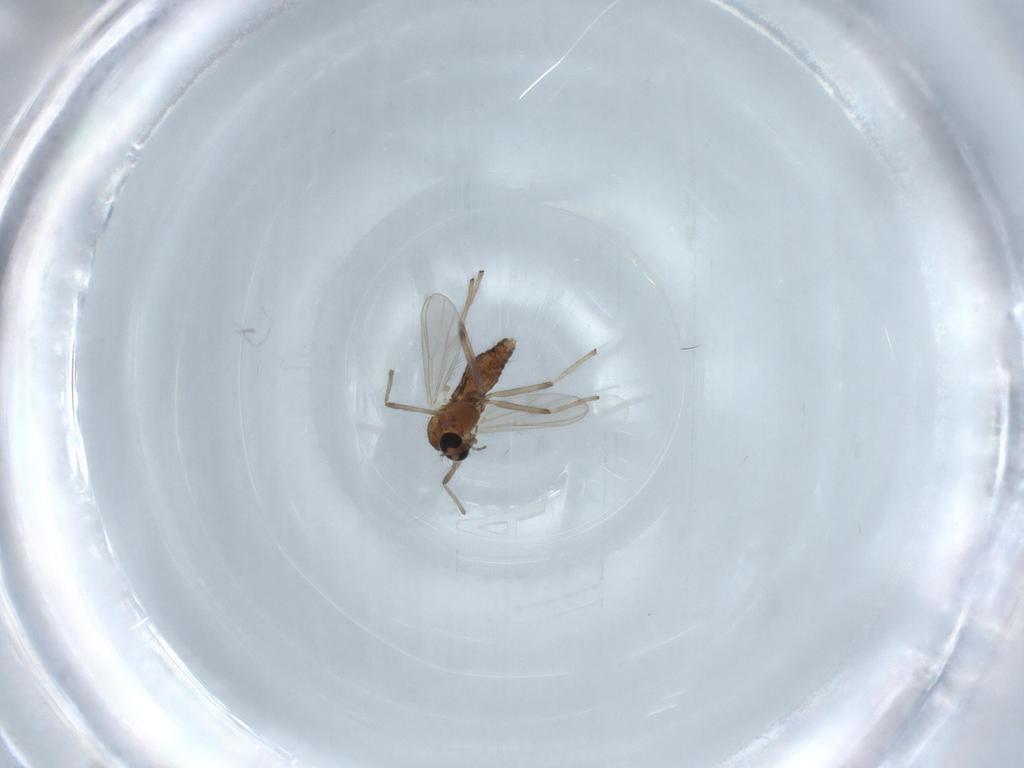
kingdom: Animalia
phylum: Arthropoda
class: Insecta
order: Diptera
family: Chironomidae
